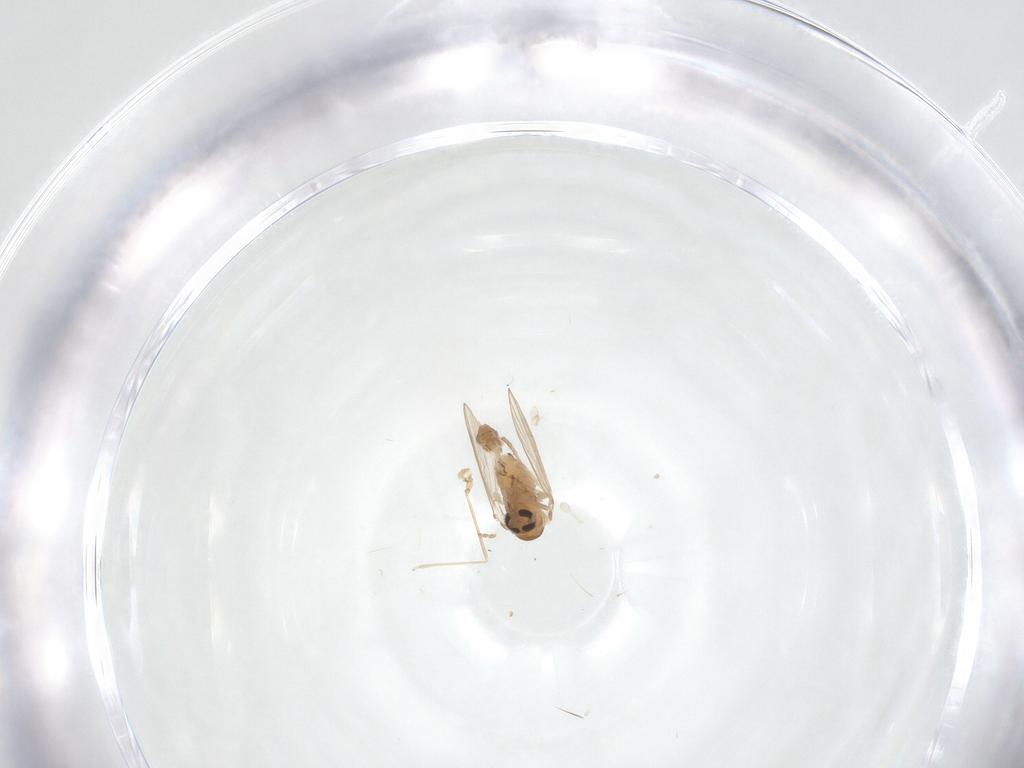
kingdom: Animalia
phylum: Arthropoda
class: Insecta
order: Diptera
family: Psychodidae
